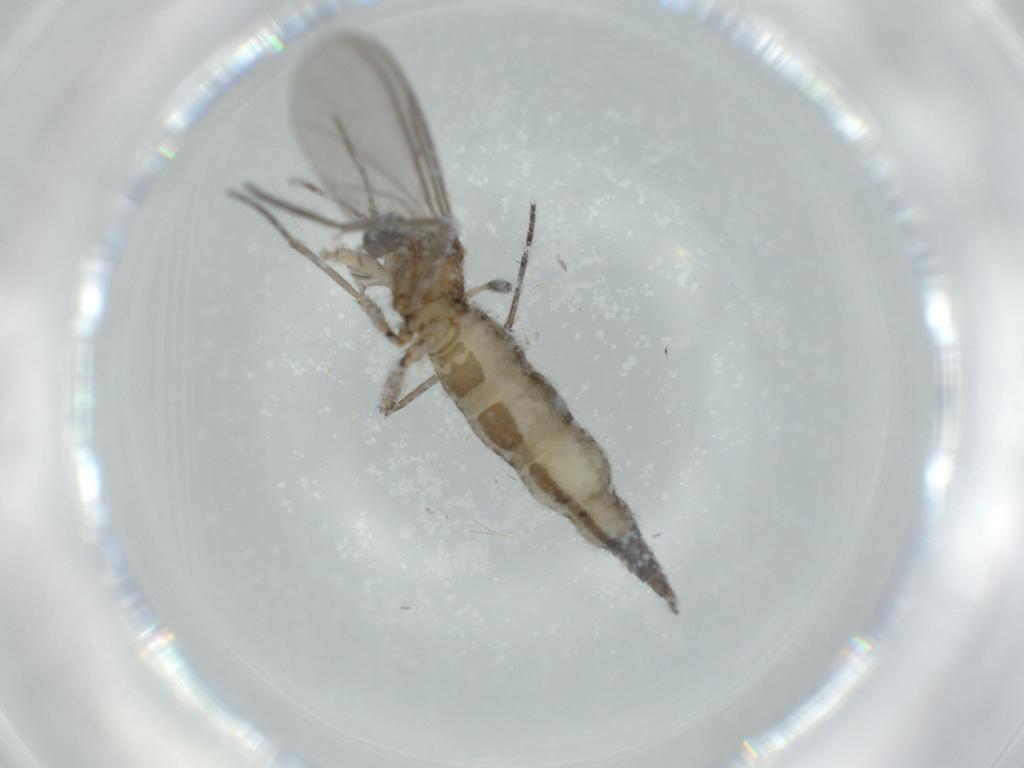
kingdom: Animalia
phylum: Arthropoda
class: Insecta
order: Diptera
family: Sciaridae
